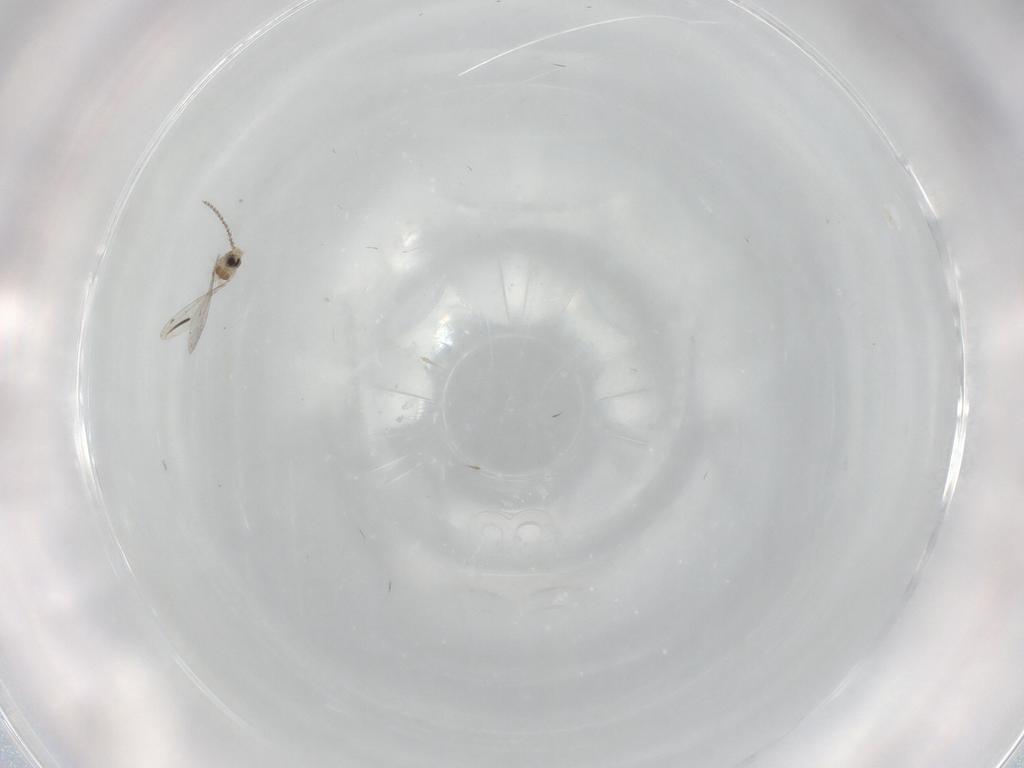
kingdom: Animalia
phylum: Arthropoda
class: Insecta
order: Diptera
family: Cecidomyiidae
